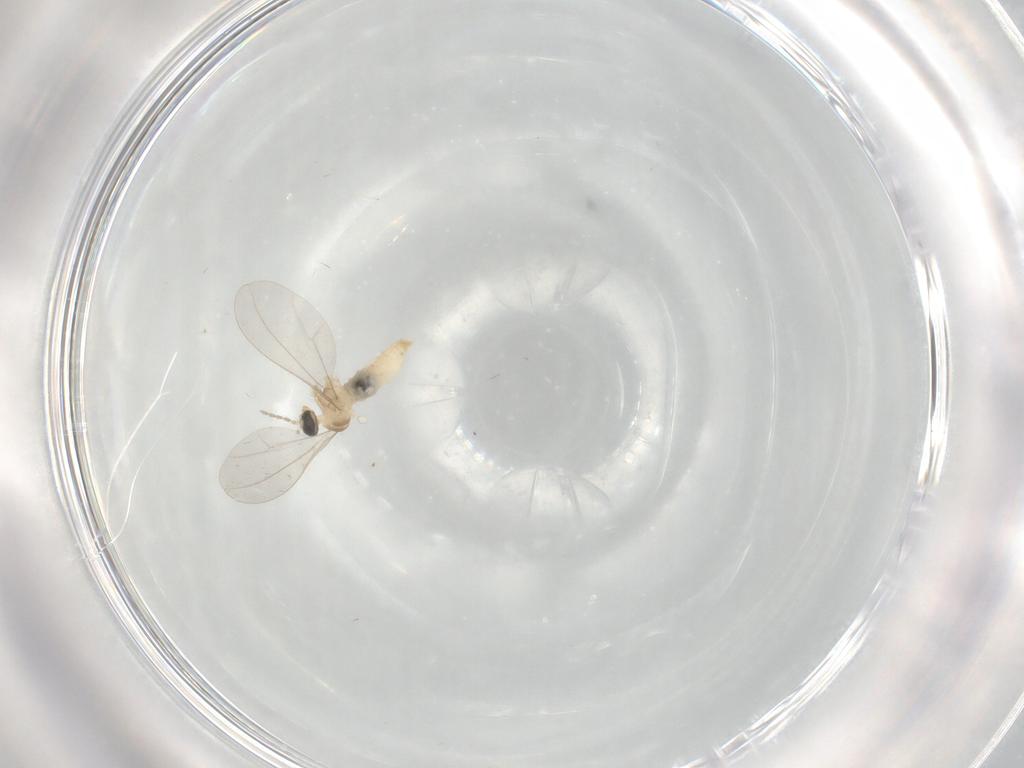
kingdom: Animalia
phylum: Arthropoda
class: Insecta
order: Diptera
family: Cecidomyiidae
